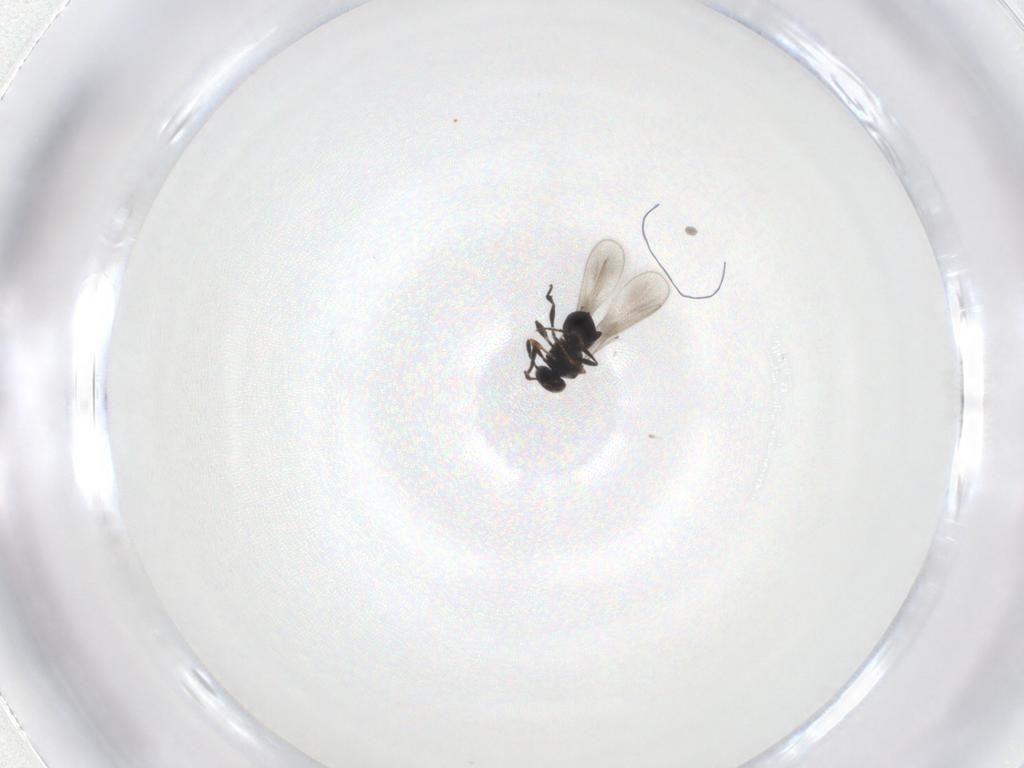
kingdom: Animalia
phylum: Arthropoda
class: Insecta
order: Hymenoptera
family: Platygastridae
